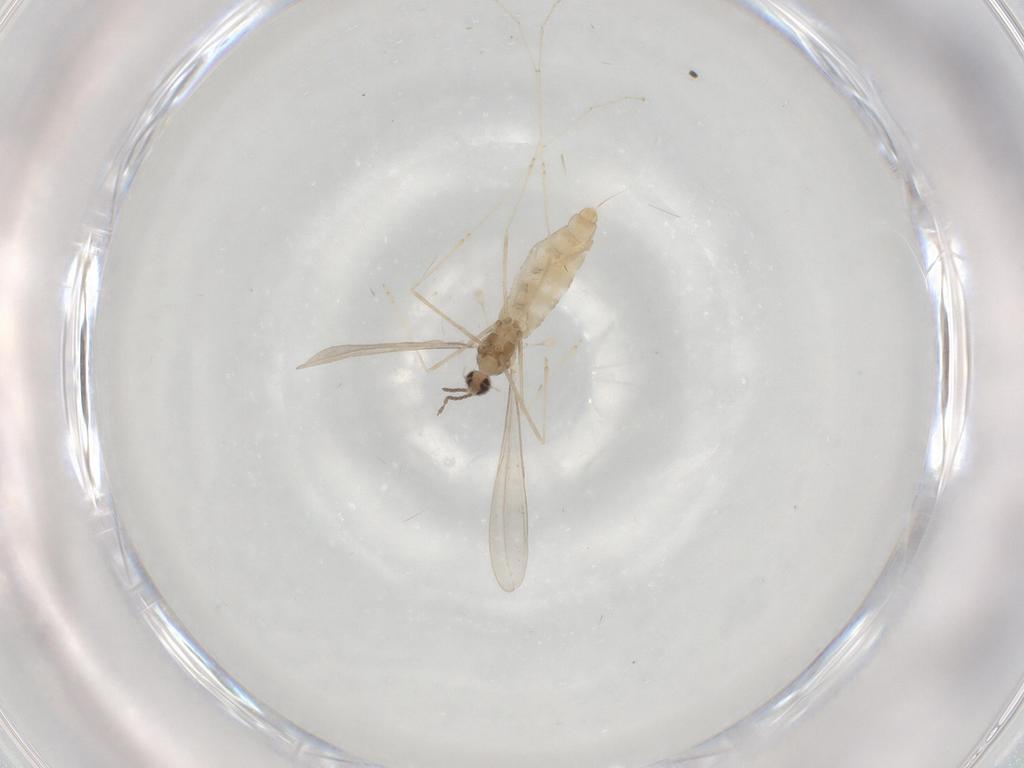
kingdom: Animalia
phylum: Arthropoda
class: Insecta
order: Diptera
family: Cecidomyiidae
